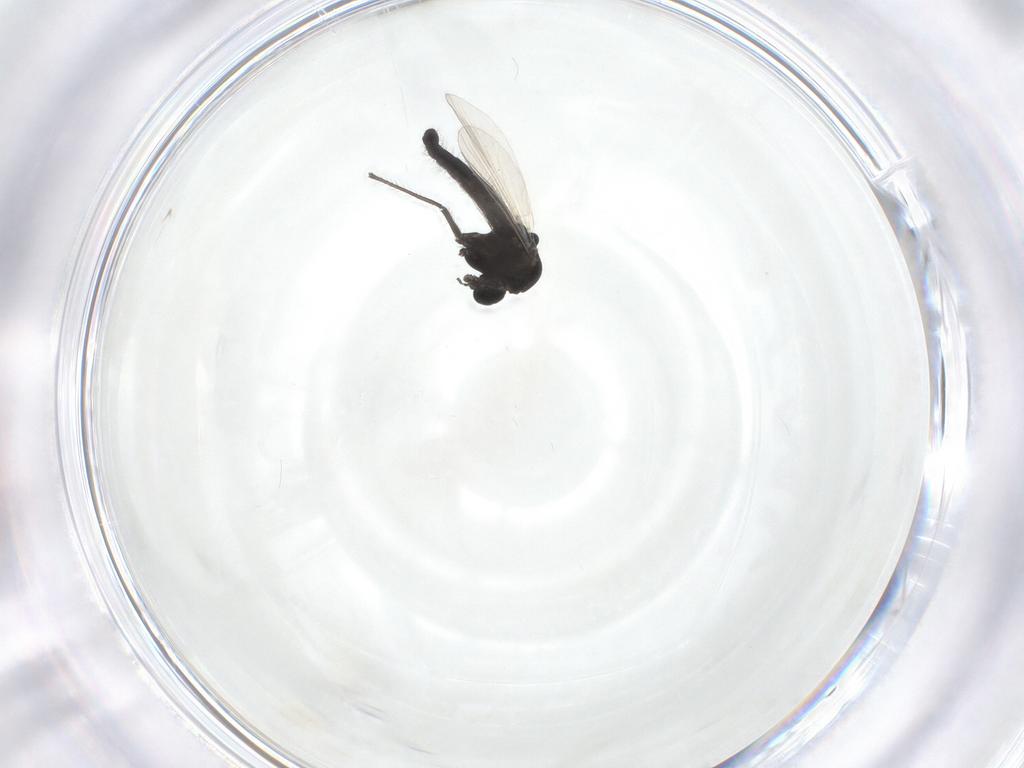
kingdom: Animalia
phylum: Arthropoda
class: Insecta
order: Diptera
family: Chironomidae
